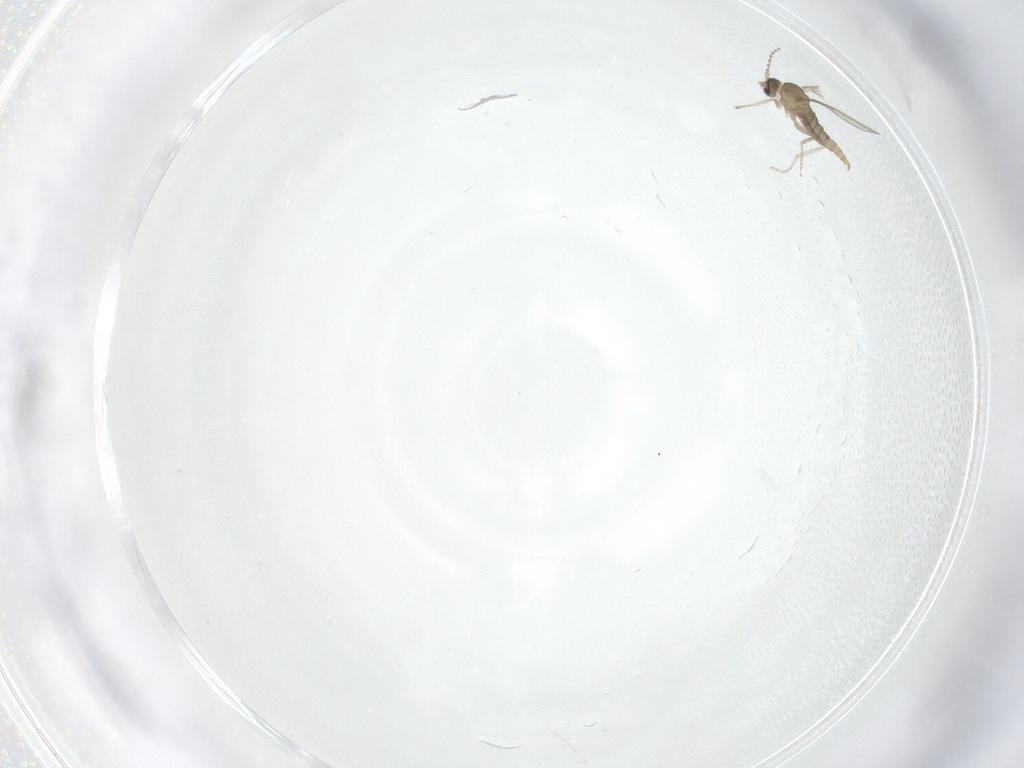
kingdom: Animalia
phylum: Arthropoda
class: Insecta
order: Diptera
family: Cecidomyiidae
